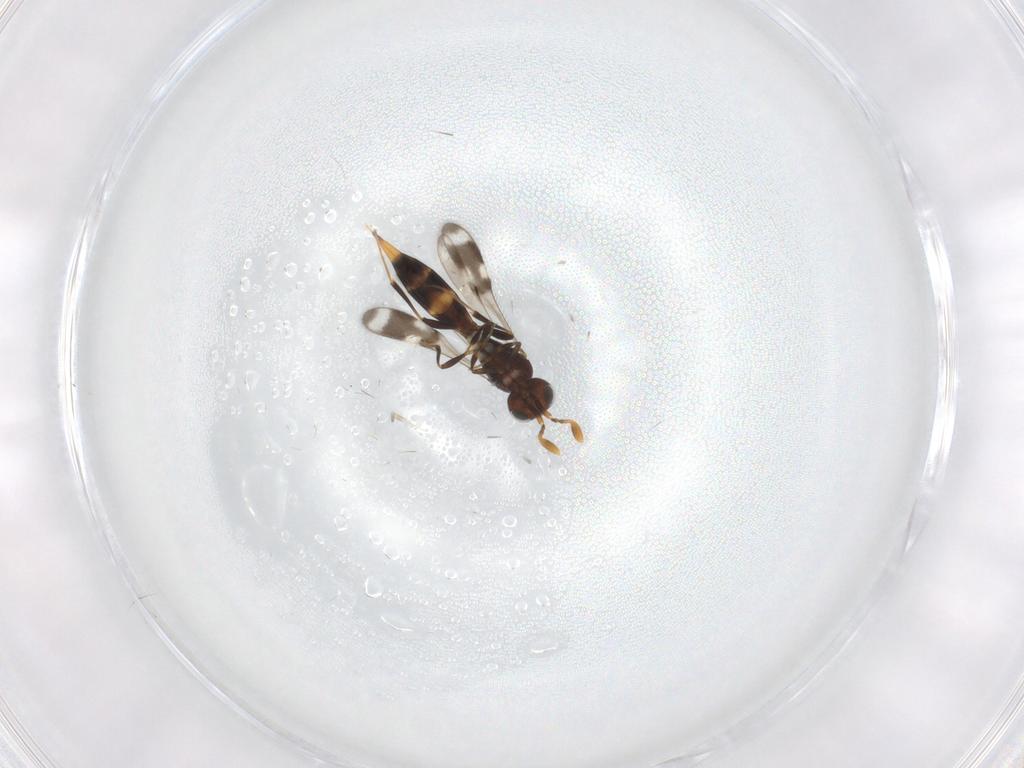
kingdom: Animalia
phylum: Arthropoda
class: Insecta
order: Hymenoptera
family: Scelionidae
